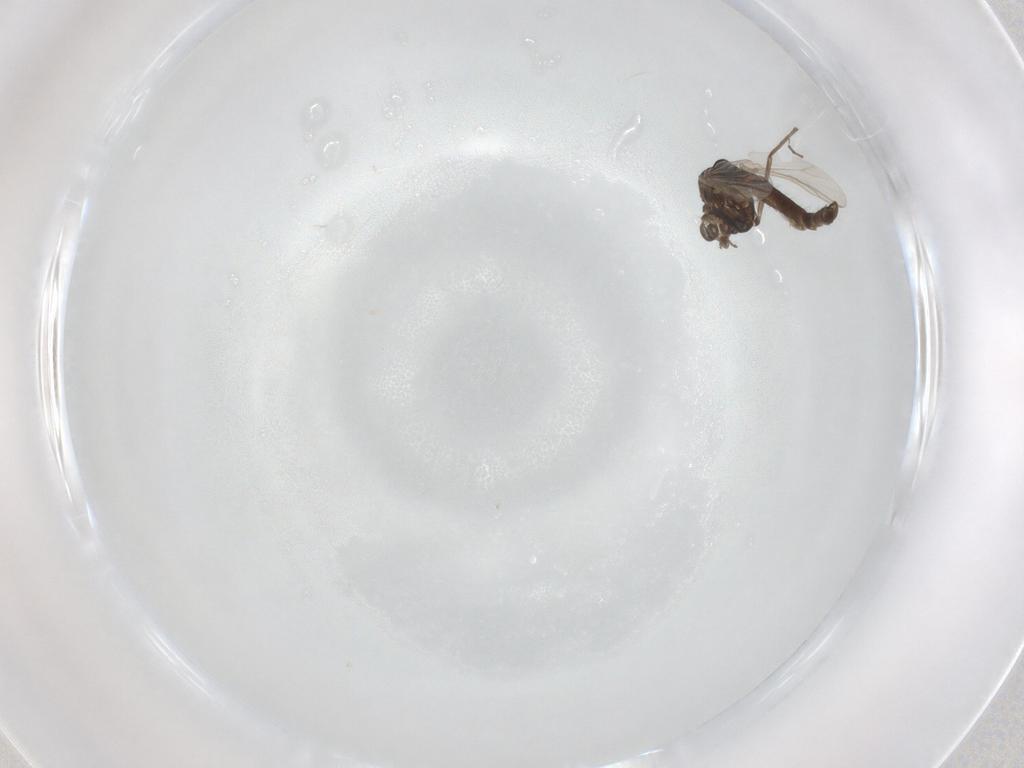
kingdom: Animalia
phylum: Arthropoda
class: Insecta
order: Diptera
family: Chironomidae
